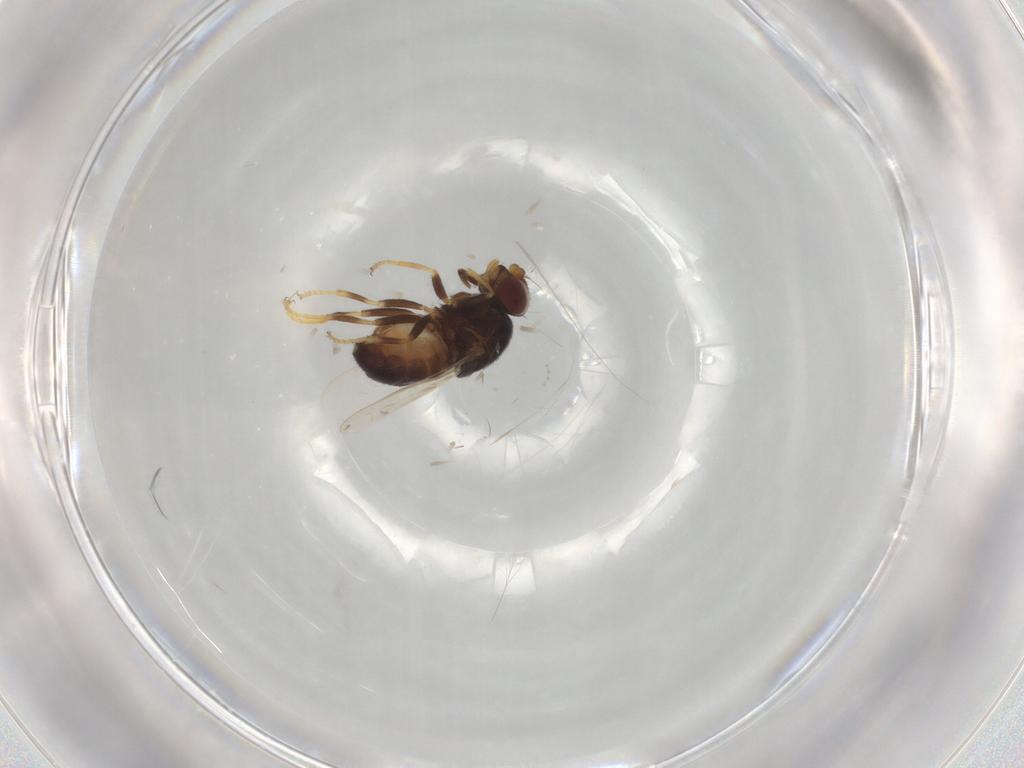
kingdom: Animalia
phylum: Arthropoda
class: Insecta
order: Diptera
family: Chloropidae
